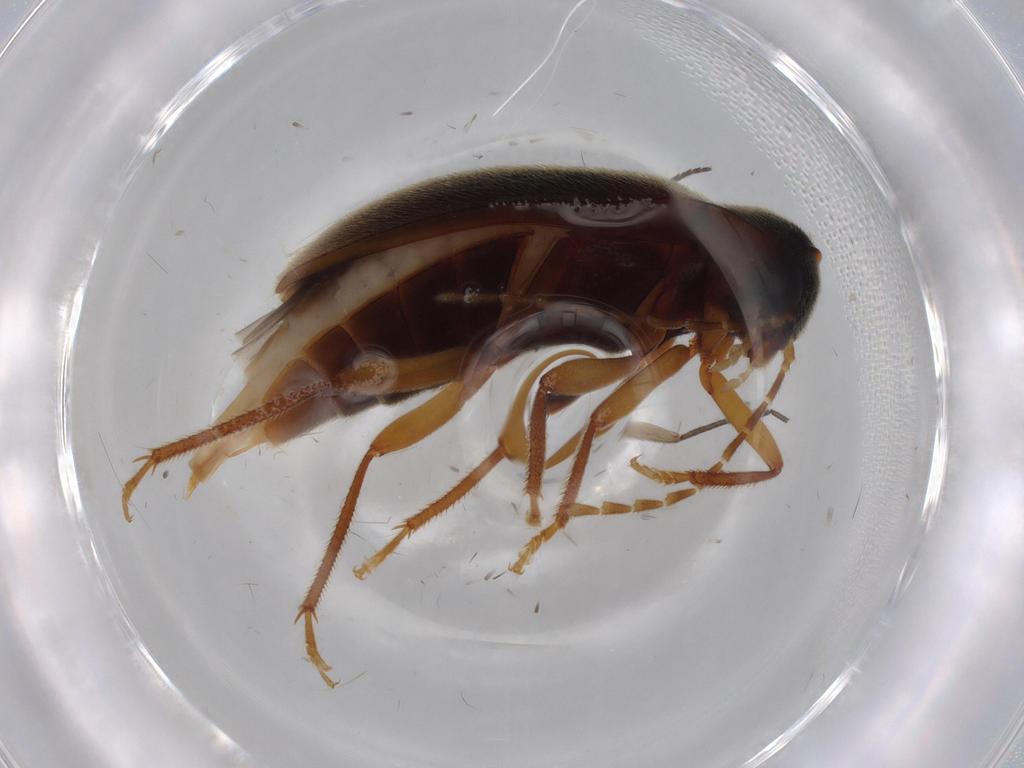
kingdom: Animalia
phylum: Arthropoda
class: Insecta
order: Coleoptera
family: Ptilodactylidae
